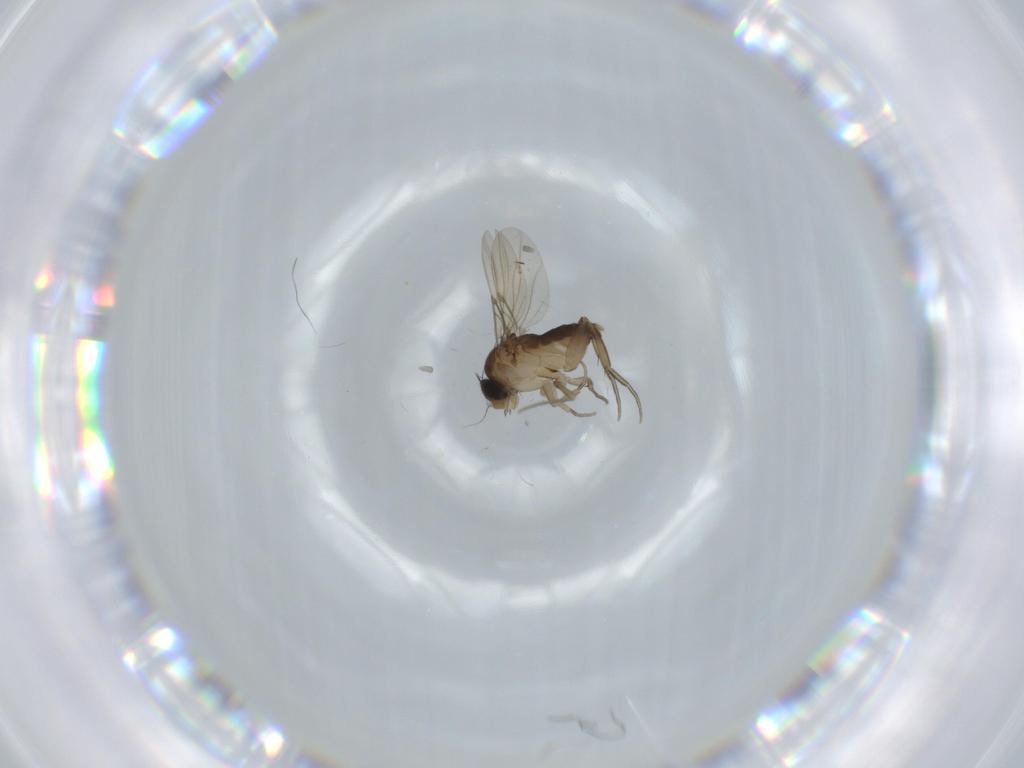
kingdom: Animalia
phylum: Arthropoda
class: Insecta
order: Diptera
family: Phoridae
